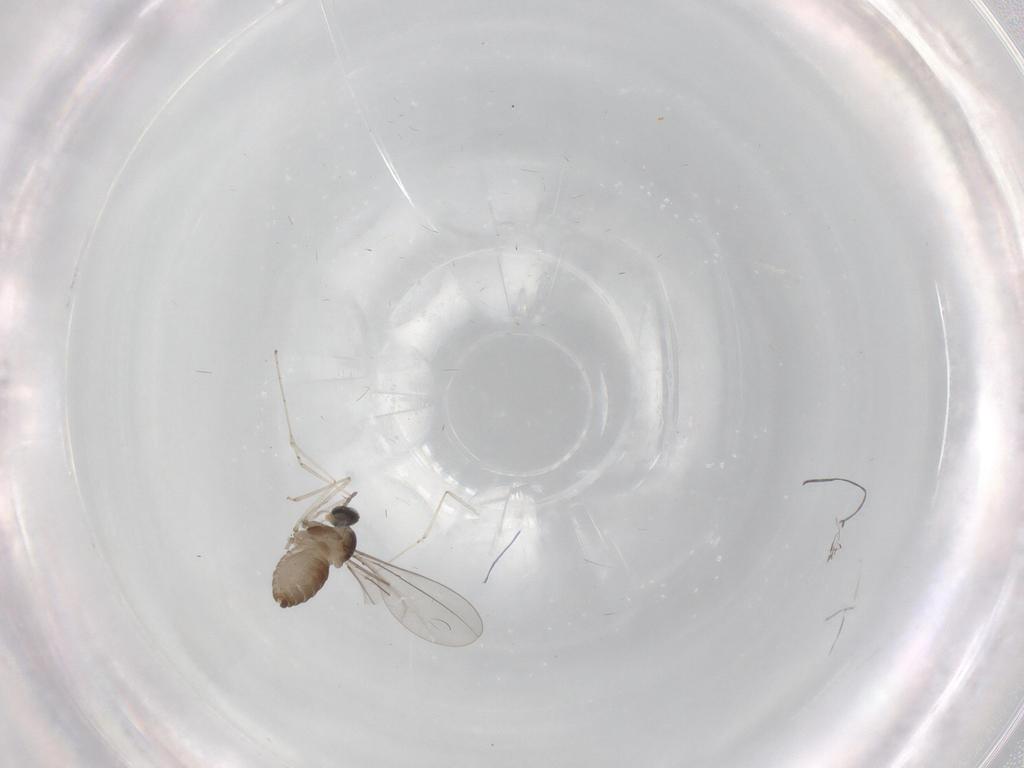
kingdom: Animalia
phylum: Arthropoda
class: Insecta
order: Diptera
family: Cecidomyiidae
